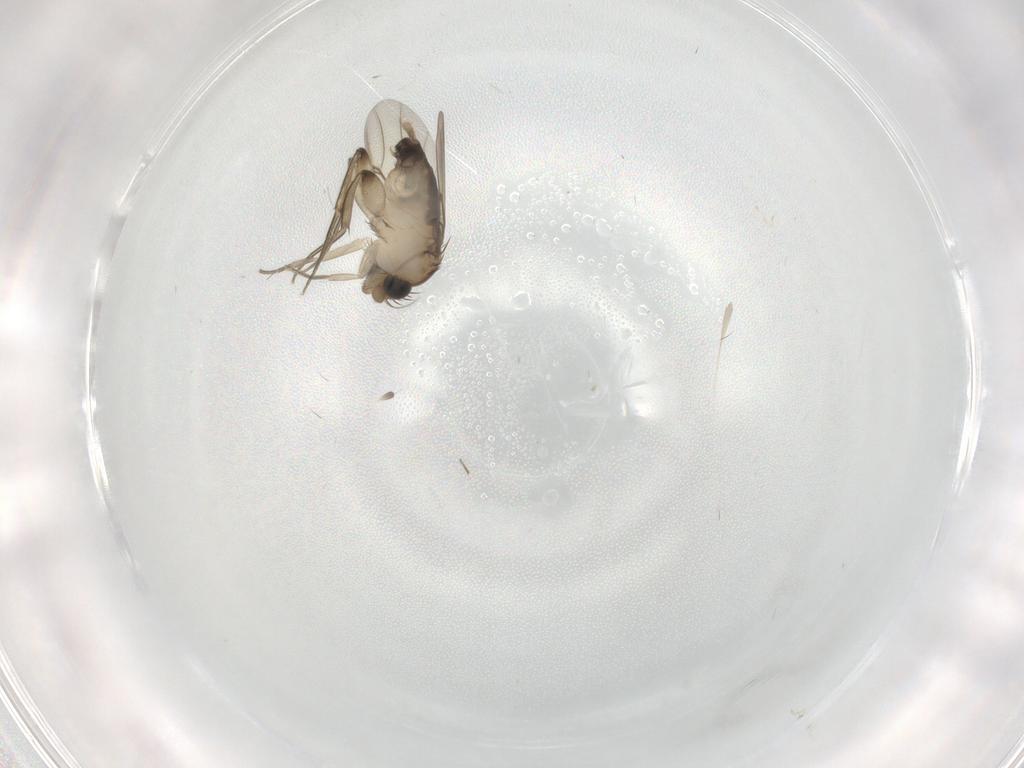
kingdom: Animalia
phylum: Arthropoda
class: Insecta
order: Diptera
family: Phoridae
